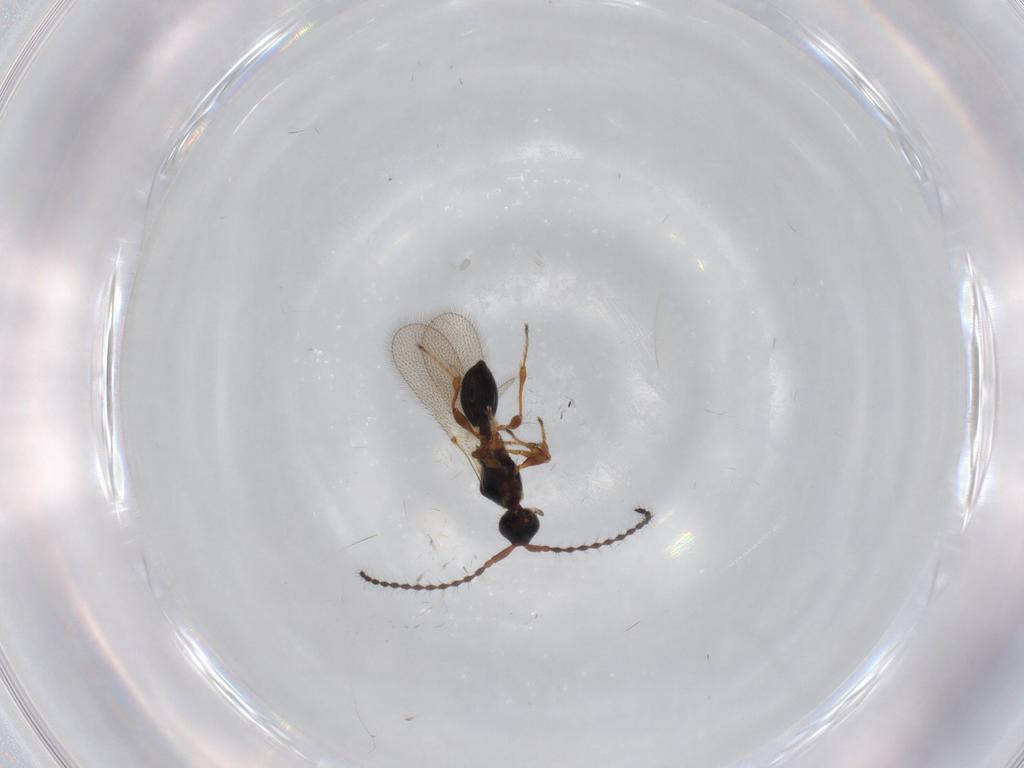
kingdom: Animalia
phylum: Arthropoda
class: Insecta
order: Hymenoptera
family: Diapriidae
